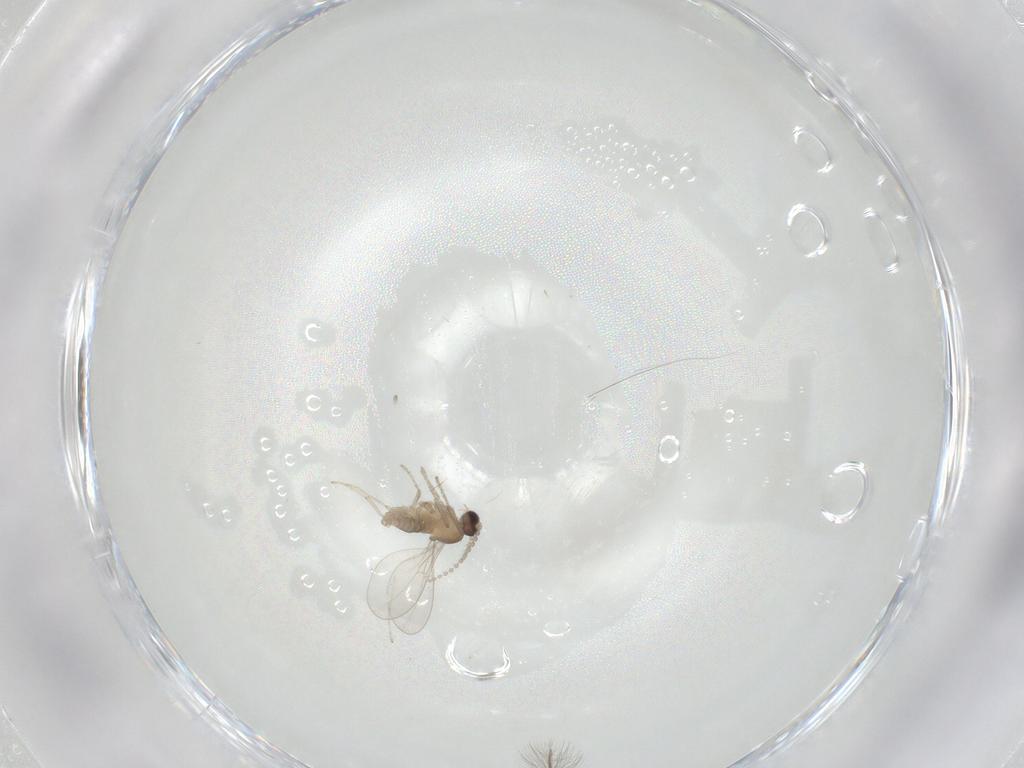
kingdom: Animalia
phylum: Arthropoda
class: Insecta
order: Diptera
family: Cecidomyiidae
